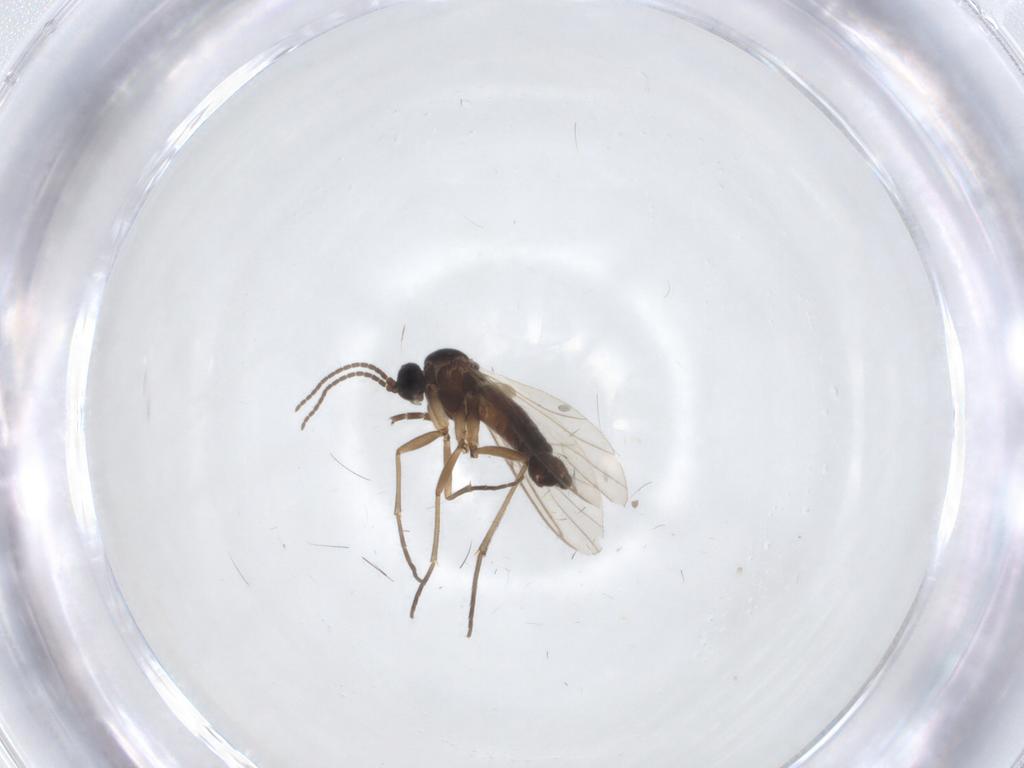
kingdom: Animalia
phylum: Arthropoda
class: Insecta
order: Diptera
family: Mycetophilidae
